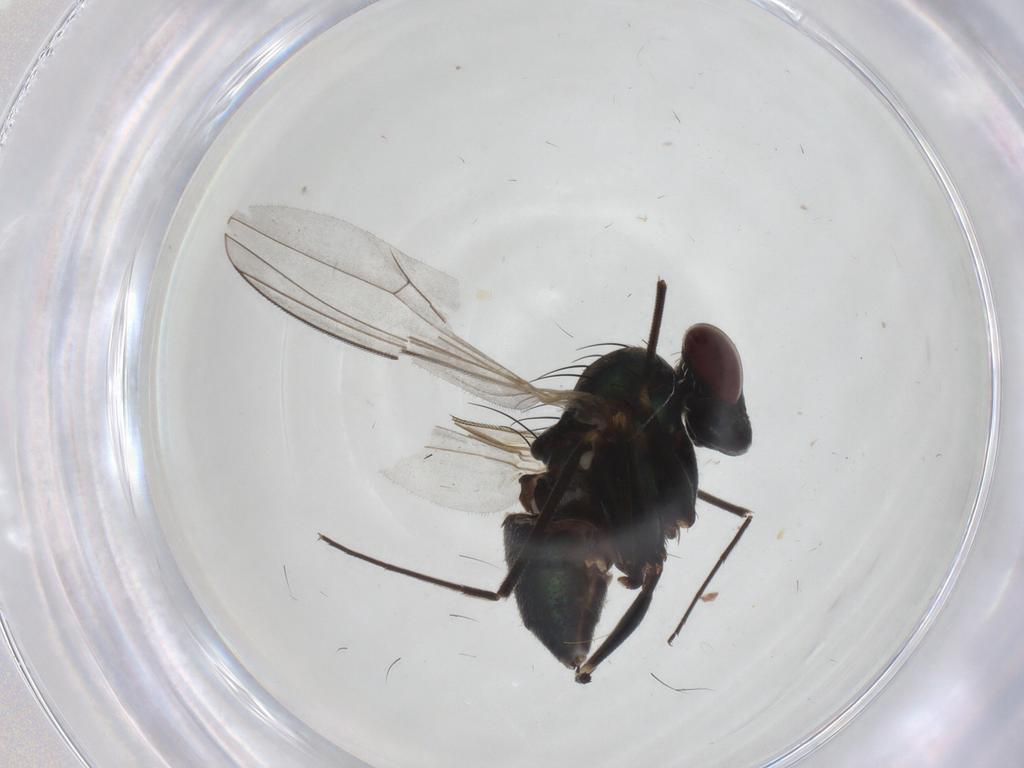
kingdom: Animalia
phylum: Arthropoda
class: Insecta
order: Diptera
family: Dolichopodidae
